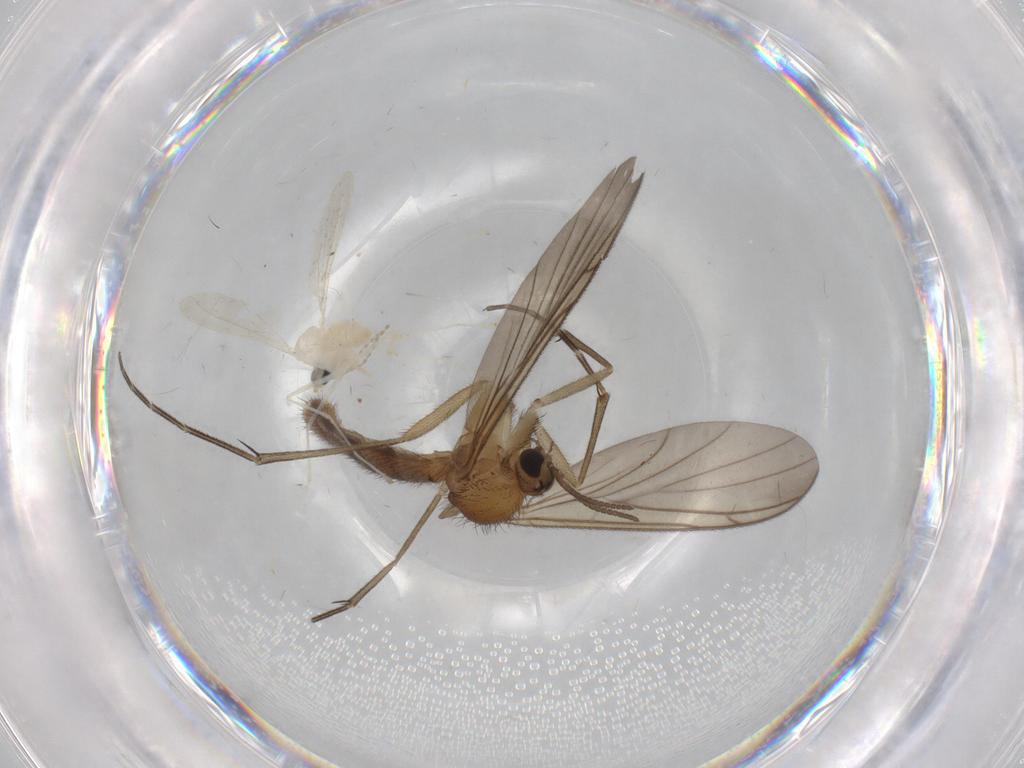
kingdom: Animalia
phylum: Arthropoda
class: Insecta
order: Diptera
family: Keroplatidae
